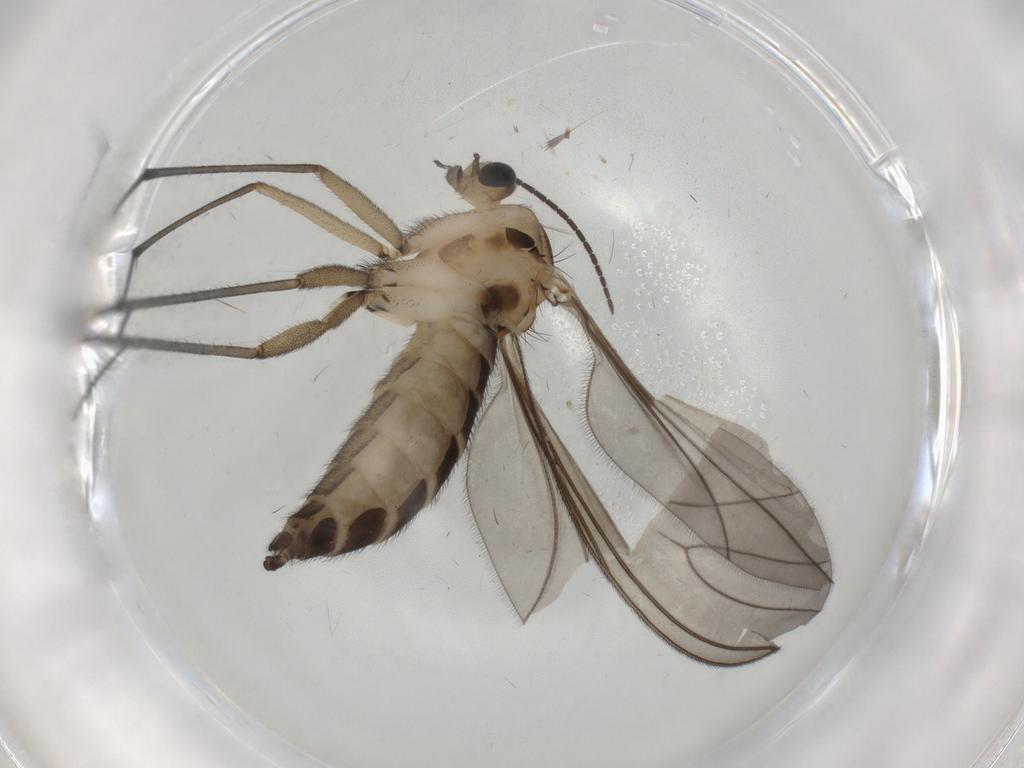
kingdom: Animalia
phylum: Arthropoda
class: Insecta
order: Diptera
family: Sciaridae
